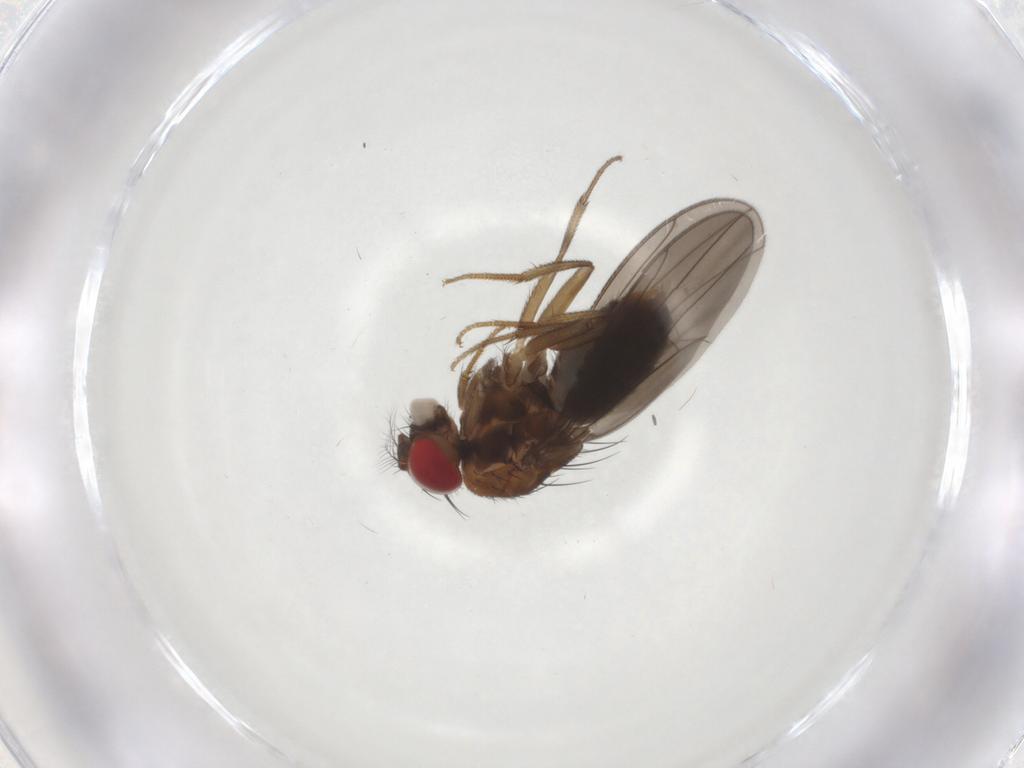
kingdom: Animalia
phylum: Arthropoda
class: Insecta
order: Diptera
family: Drosophilidae
